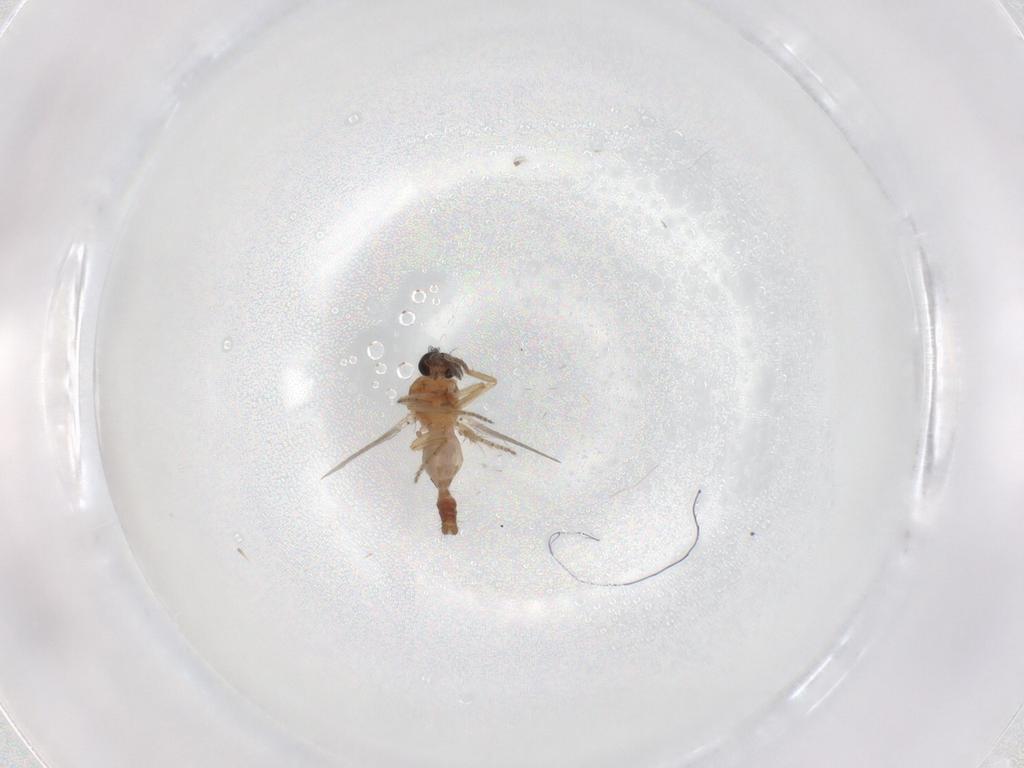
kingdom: Animalia
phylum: Arthropoda
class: Insecta
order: Diptera
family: Ceratopogonidae
